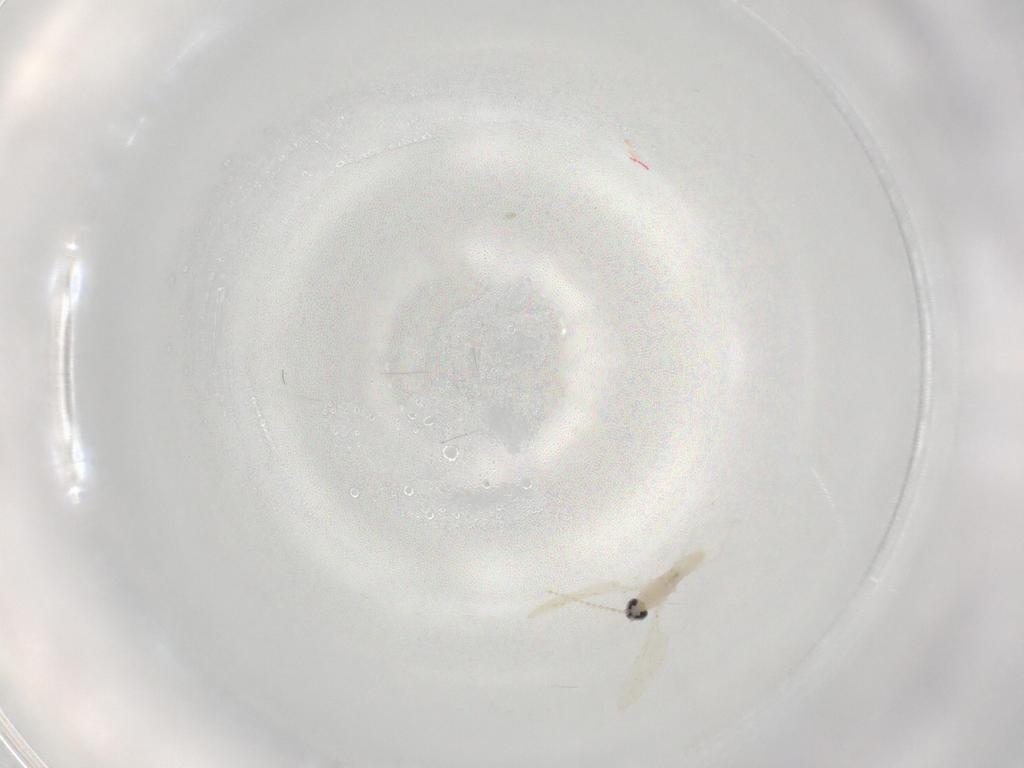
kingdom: Animalia
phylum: Arthropoda
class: Insecta
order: Diptera
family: Cecidomyiidae
